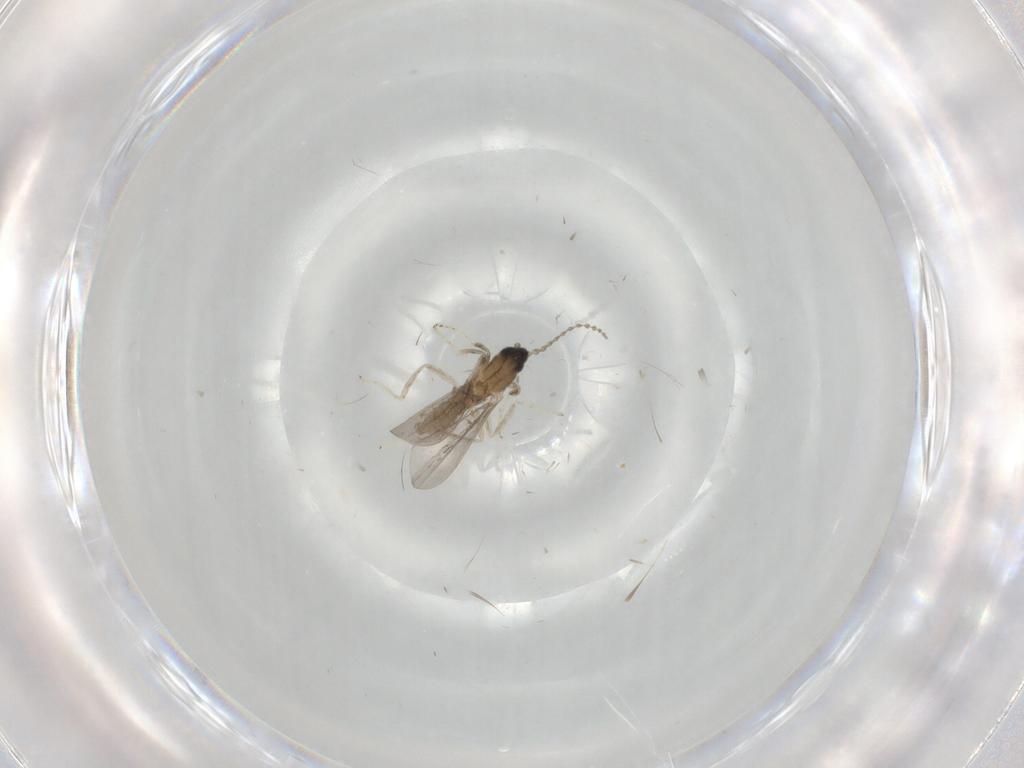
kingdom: Animalia
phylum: Arthropoda
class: Insecta
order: Diptera
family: Cecidomyiidae
